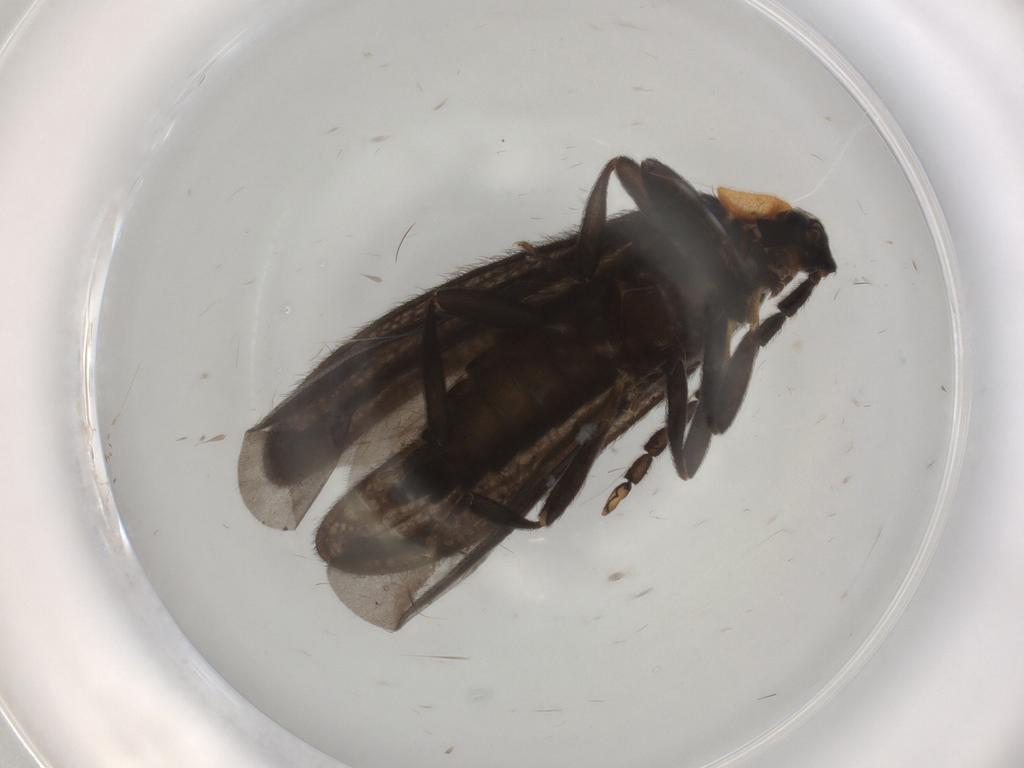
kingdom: Animalia
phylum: Arthropoda
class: Insecta
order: Coleoptera
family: Lycidae
